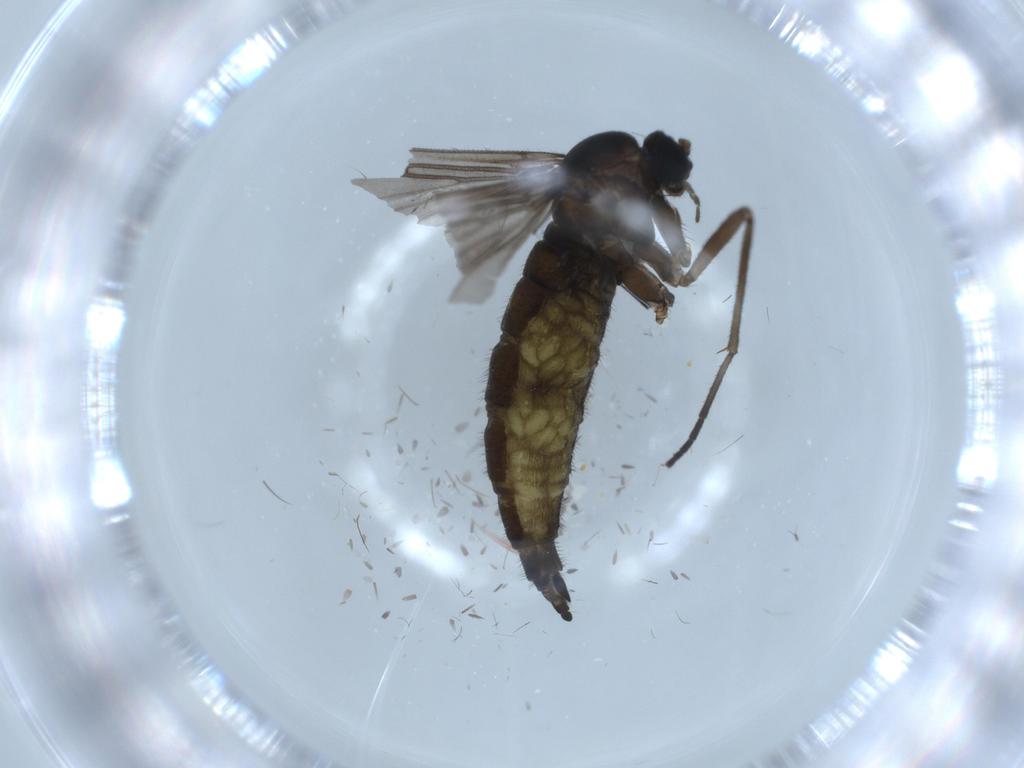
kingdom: Animalia
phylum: Arthropoda
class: Insecta
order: Diptera
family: Sciaridae
